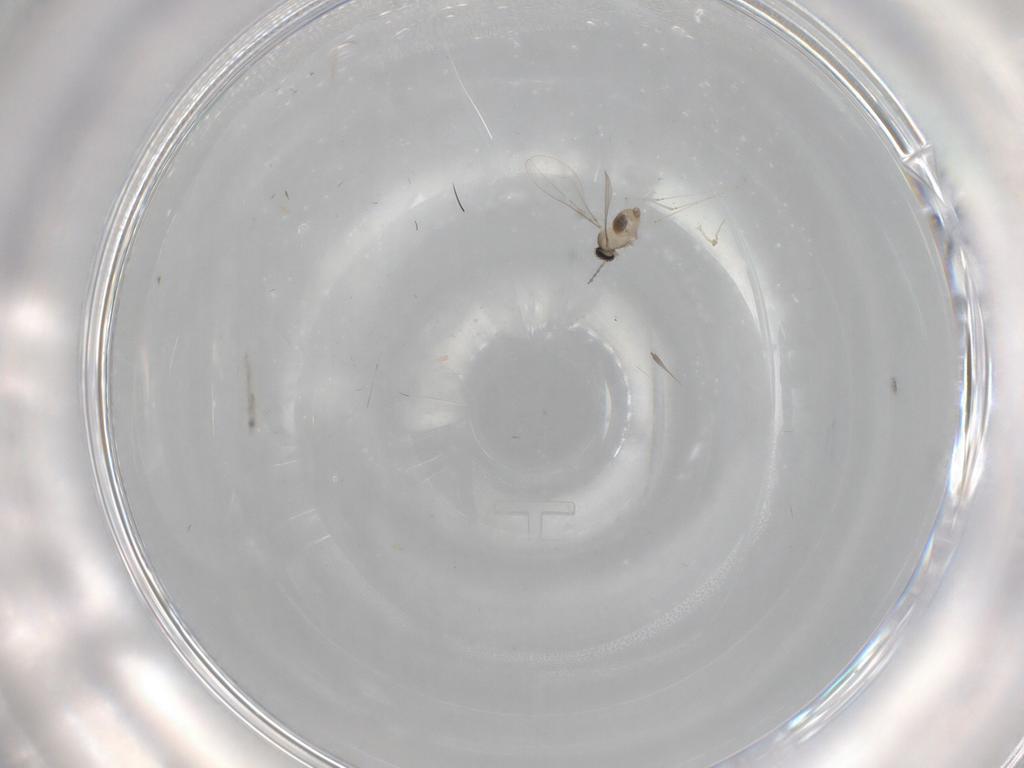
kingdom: Animalia
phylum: Arthropoda
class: Insecta
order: Diptera
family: Cecidomyiidae
